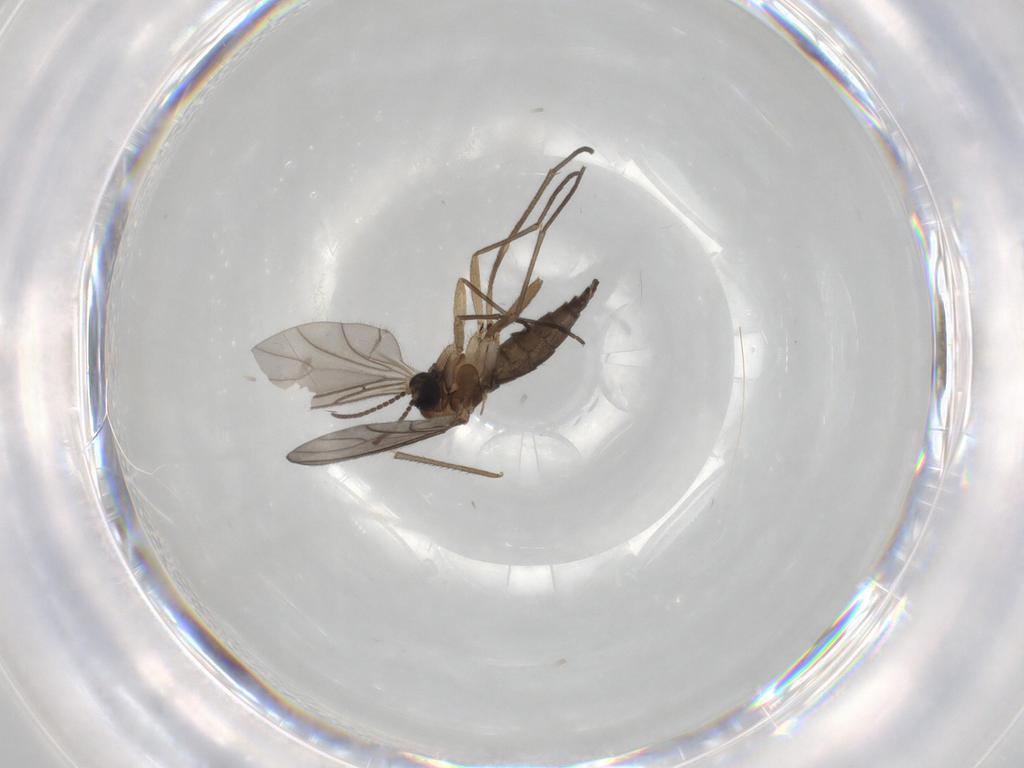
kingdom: Animalia
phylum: Arthropoda
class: Insecta
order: Diptera
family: Sciaridae
